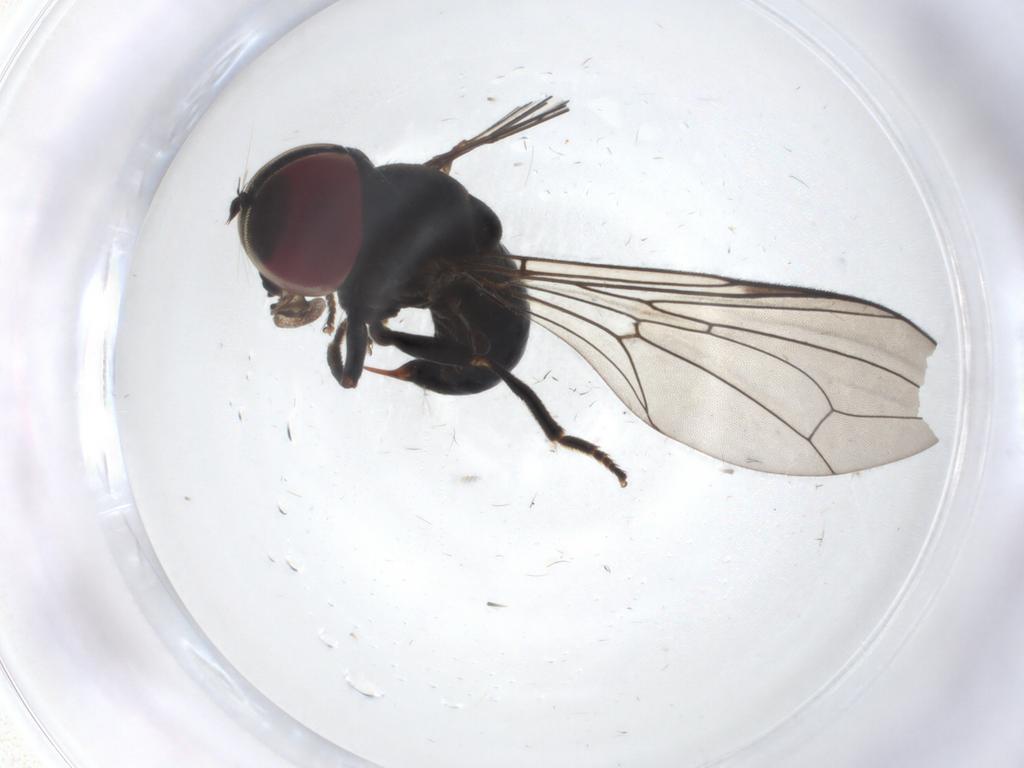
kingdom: Animalia
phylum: Arthropoda
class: Insecta
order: Diptera
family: Pipunculidae
